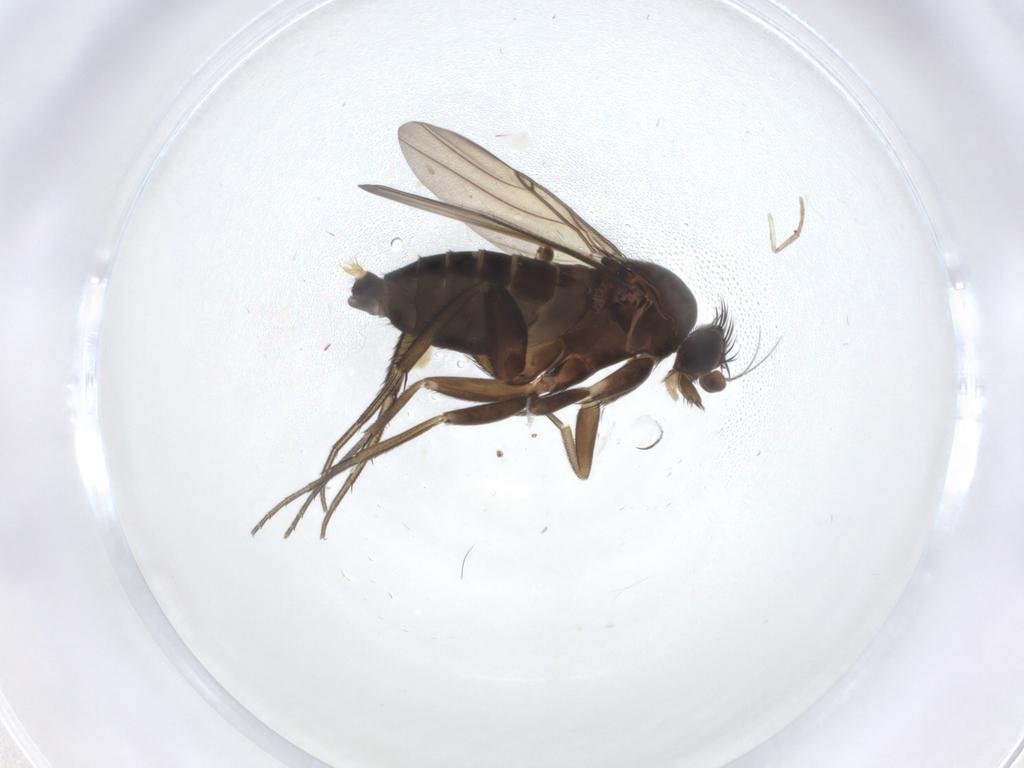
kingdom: Animalia
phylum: Arthropoda
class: Insecta
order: Diptera
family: Phoridae
